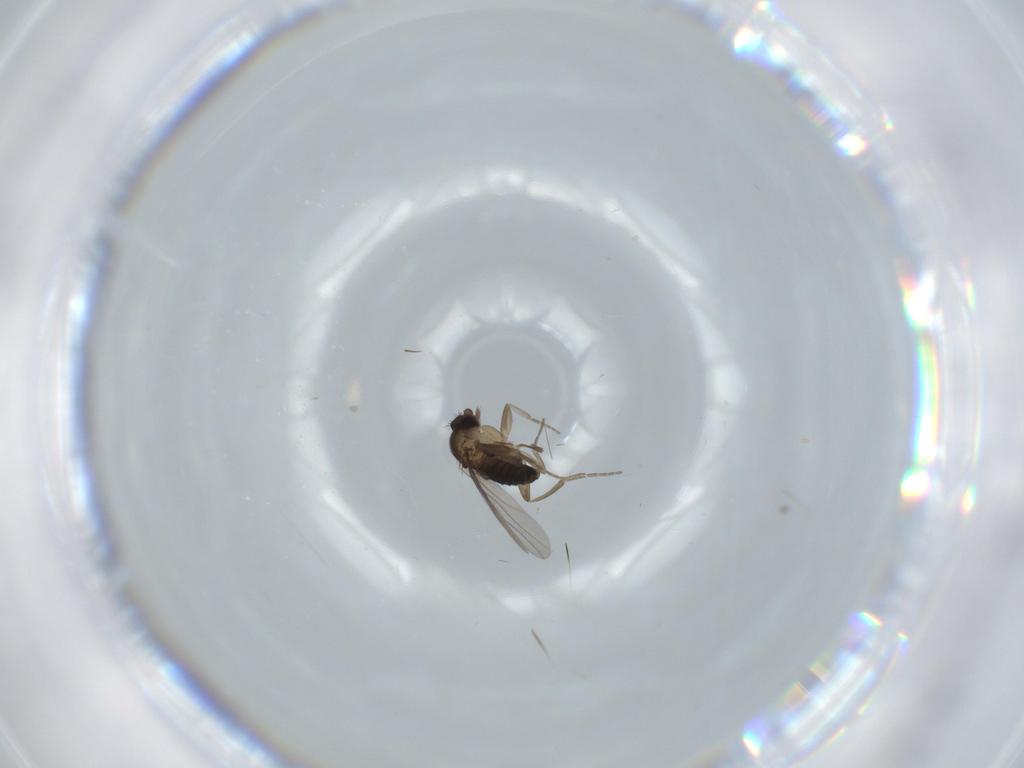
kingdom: Animalia
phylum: Arthropoda
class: Insecta
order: Diptera
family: Phoridae
